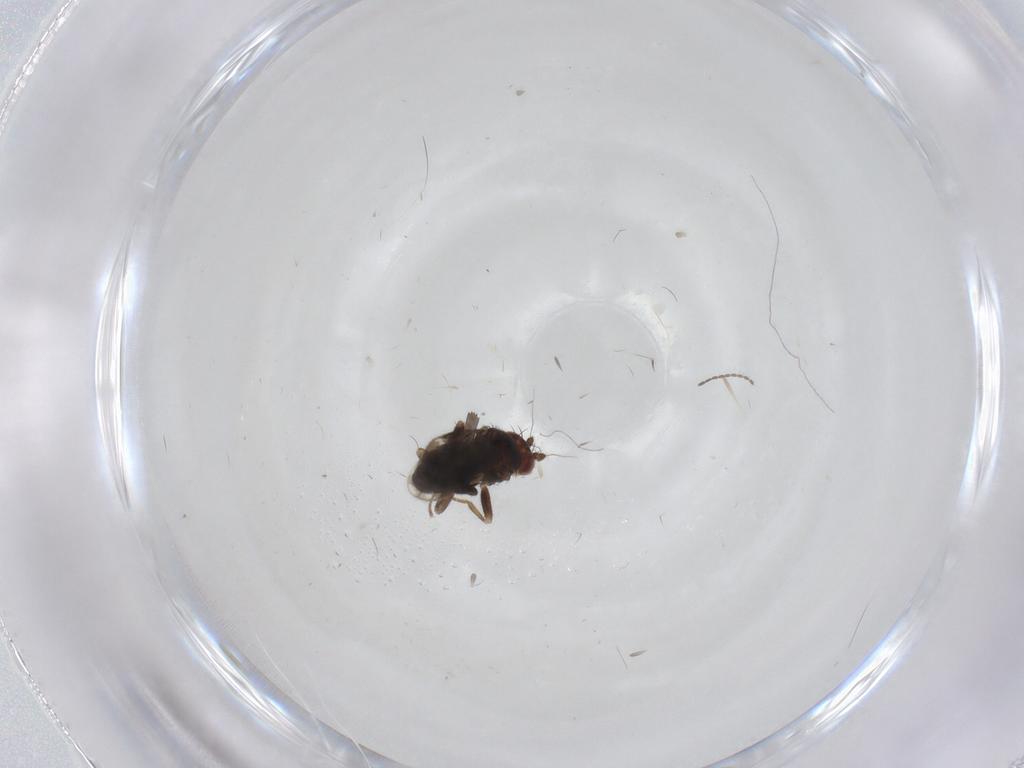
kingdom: Animalia
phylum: Arthropoda
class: Insecta
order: Diptera
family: Sphaeroceridae
